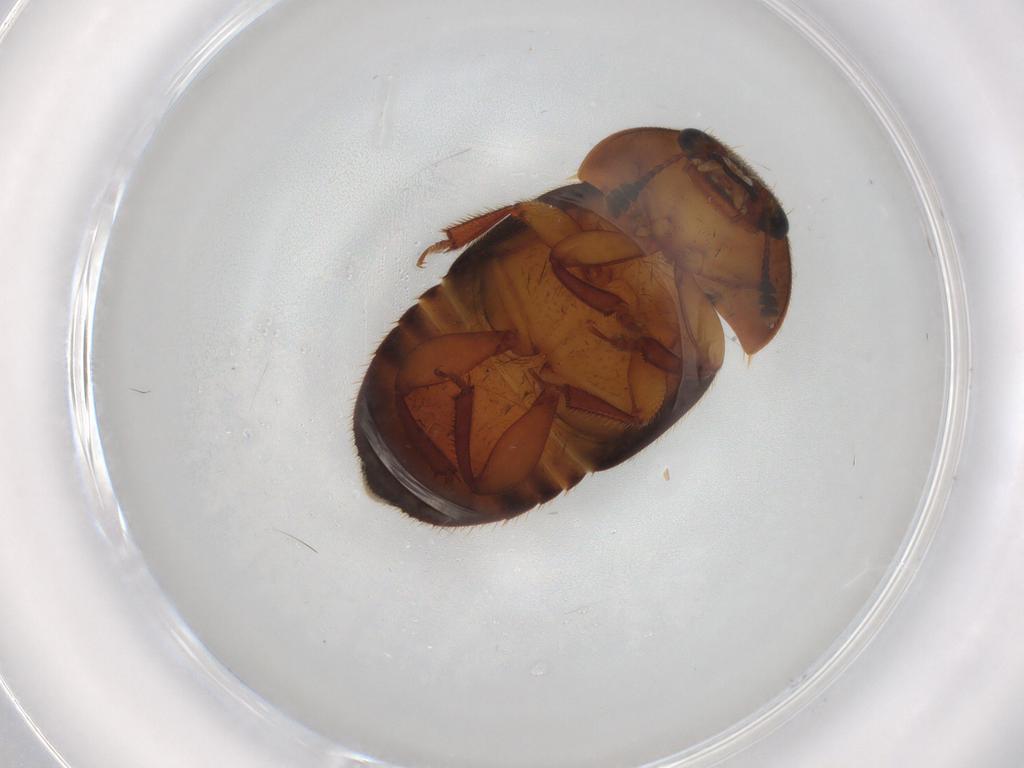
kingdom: Animalia
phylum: Arthropoda
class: Insecta
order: Coleoptera
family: Nitidulidae
